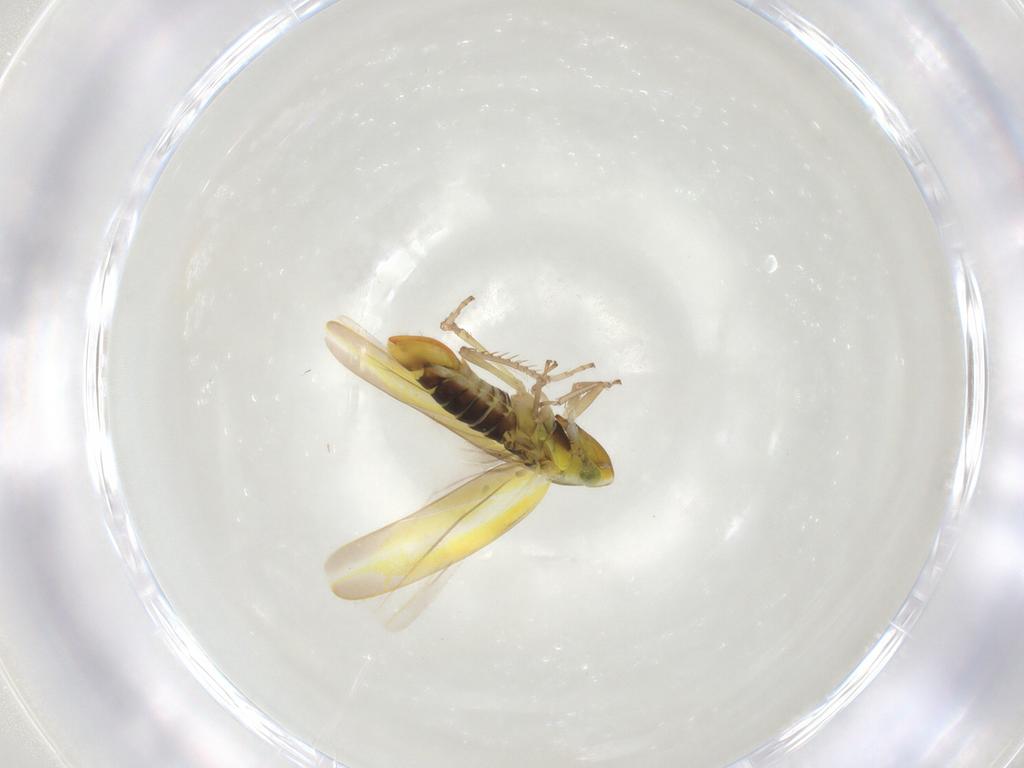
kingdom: Animalia
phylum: Arthropoda
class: Insecta
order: Hemiptera
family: Cicadellidae
